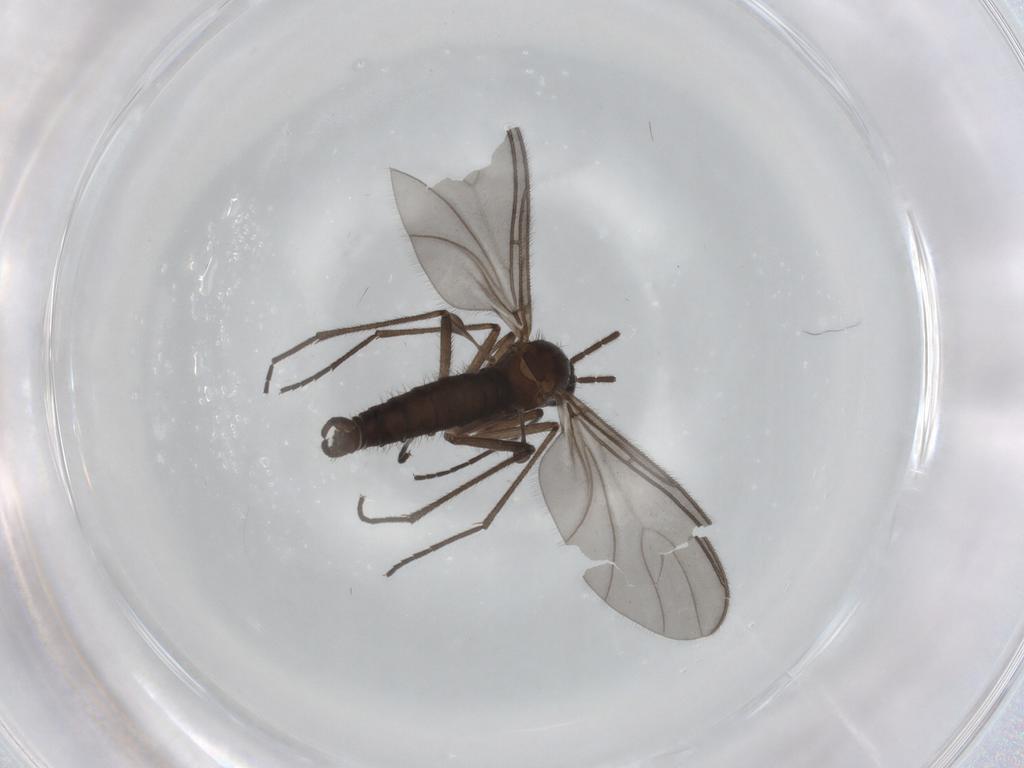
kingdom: Animalia
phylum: Arthropoda
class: Insecta
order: Diptera
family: Sciaridae
